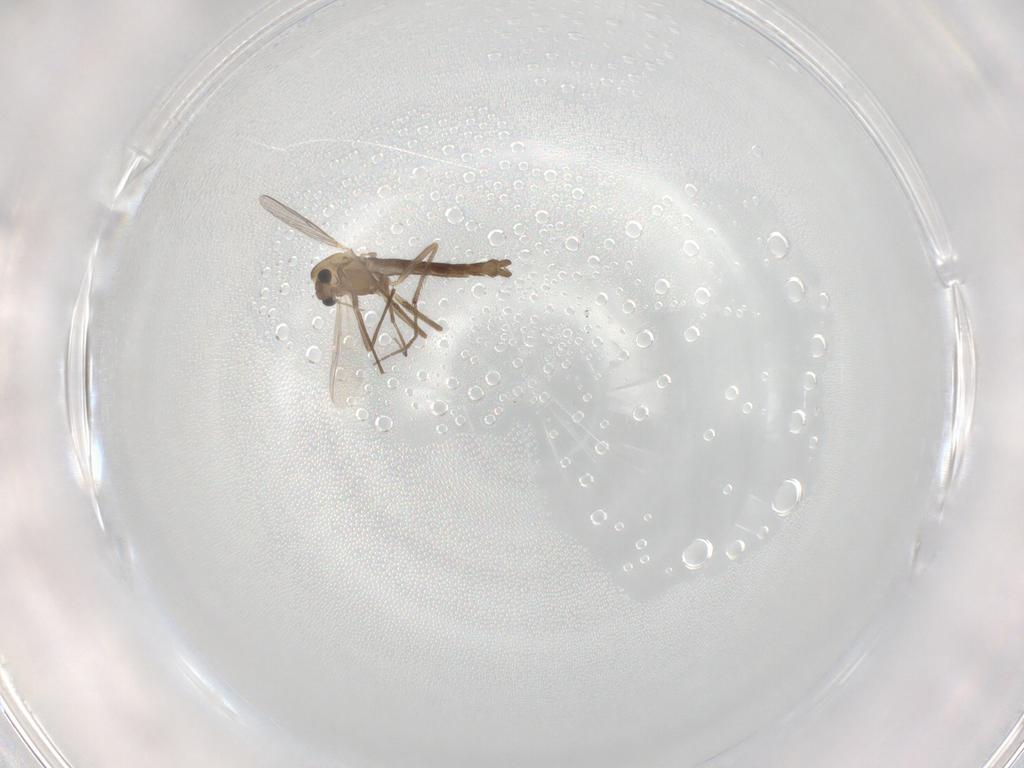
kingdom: Animalia
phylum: Arthropoda
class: Insecta
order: Diptera
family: Chironomidae
